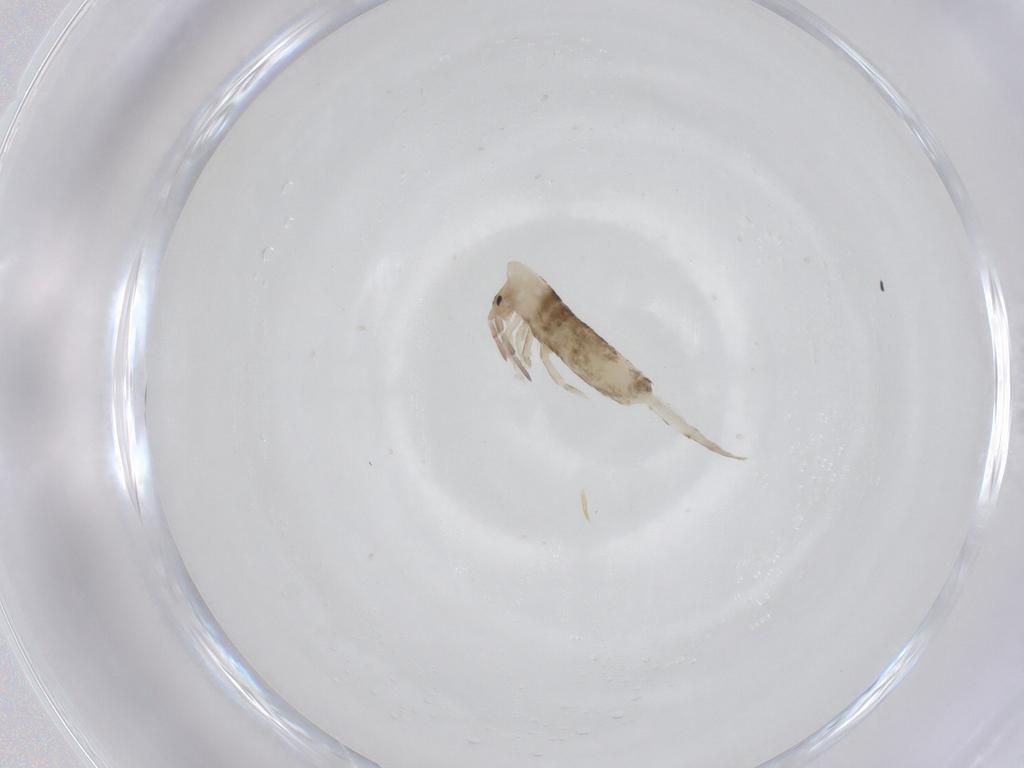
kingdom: Animalia
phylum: Arthropoda
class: Collembola
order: Entomobryomorpha
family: Entomobryidae
